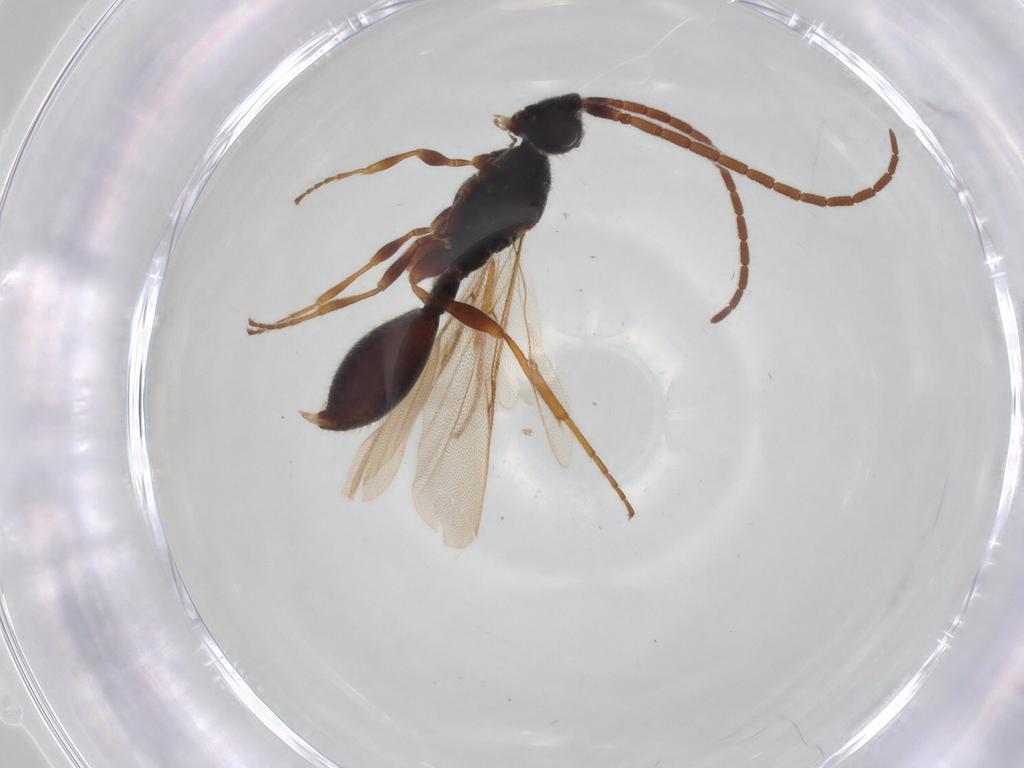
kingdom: Animalia
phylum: Arthropoda
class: Insecta
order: Hymenoptera
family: Diapriidae
